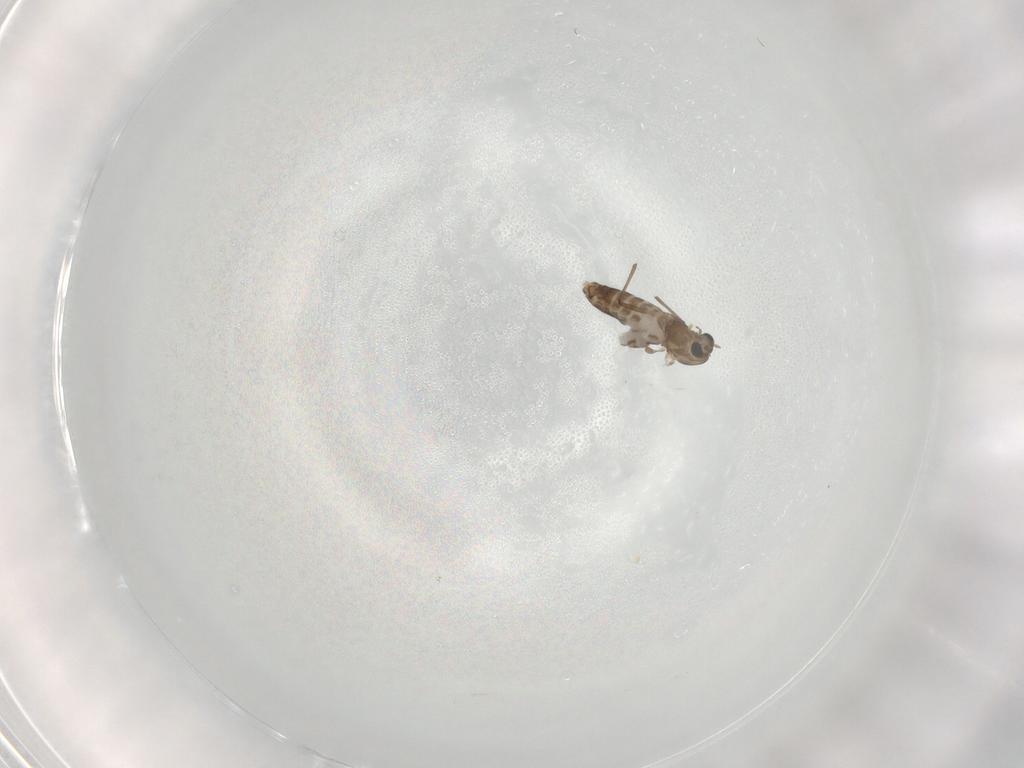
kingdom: Animalia
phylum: Arthropoda
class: Insecta
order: Diptera
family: Chironomidae
